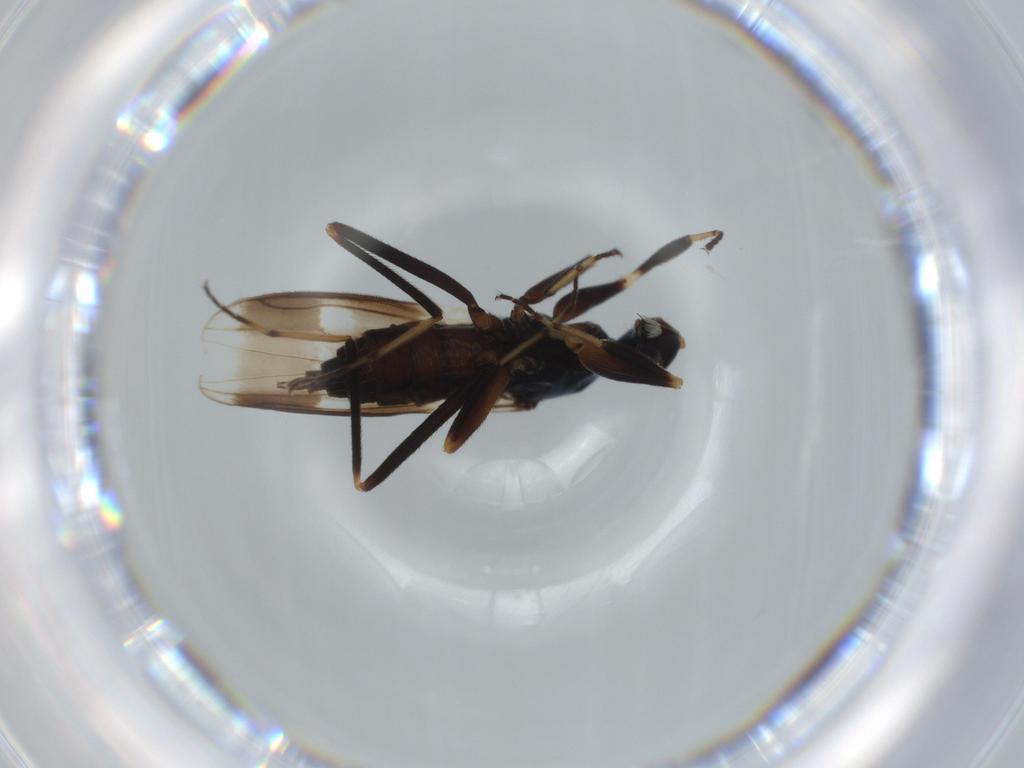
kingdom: Animalia
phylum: Arthropoda
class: Insecta
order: Diptera
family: Hybotidae
